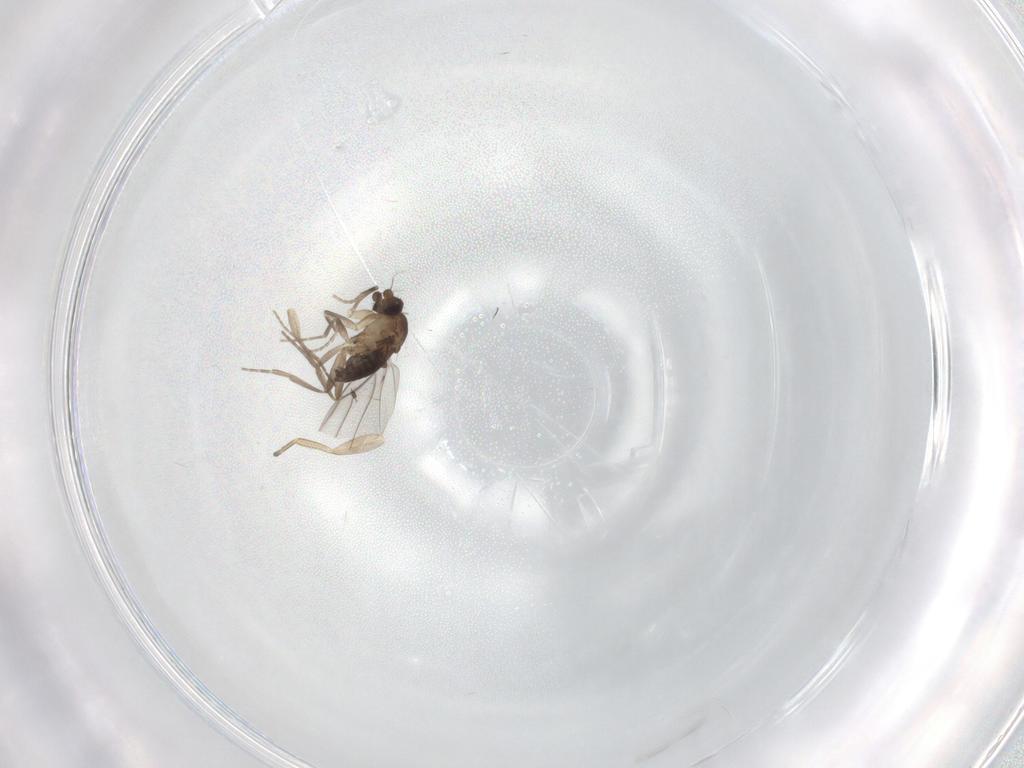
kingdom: Animalia
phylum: Arthropoda
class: Insecta
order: Diptera
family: Phoridae
